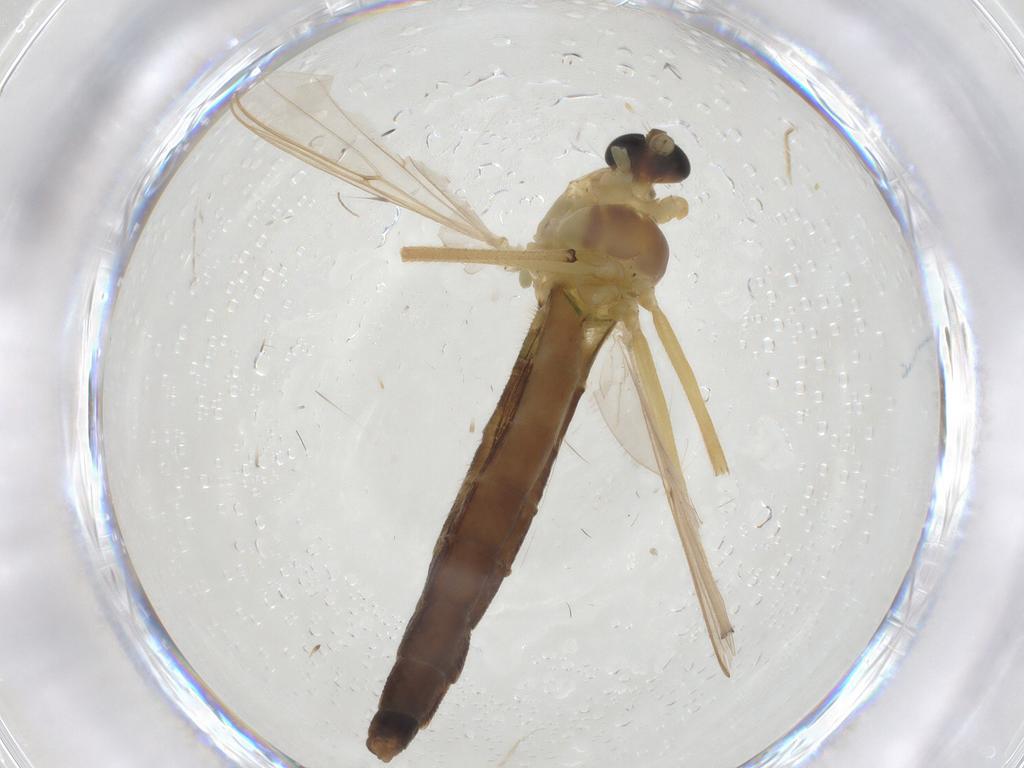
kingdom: Animalia
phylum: Arthropoda
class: Insecta
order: Diptera
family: Chironomidae
